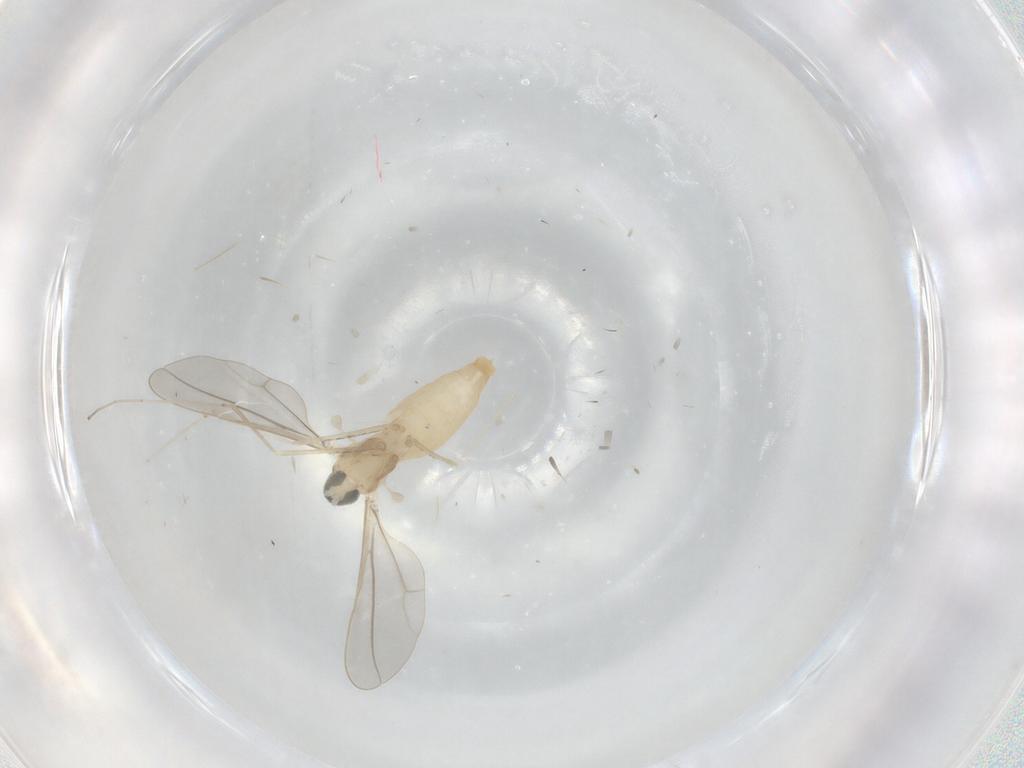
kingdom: Animalia
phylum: Arthropoda
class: Insecta
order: Diptera
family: Cecidomyiidae
